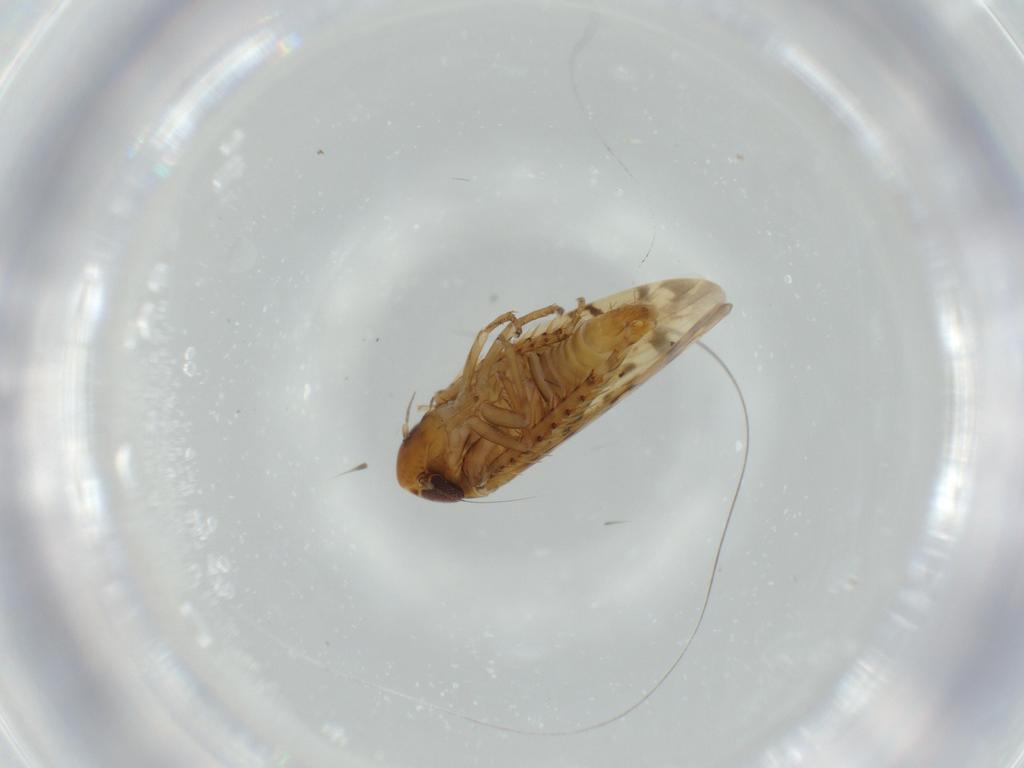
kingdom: Animalia
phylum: Arthropoda
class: Insecta
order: Hemiptera
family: Cicadellidae
